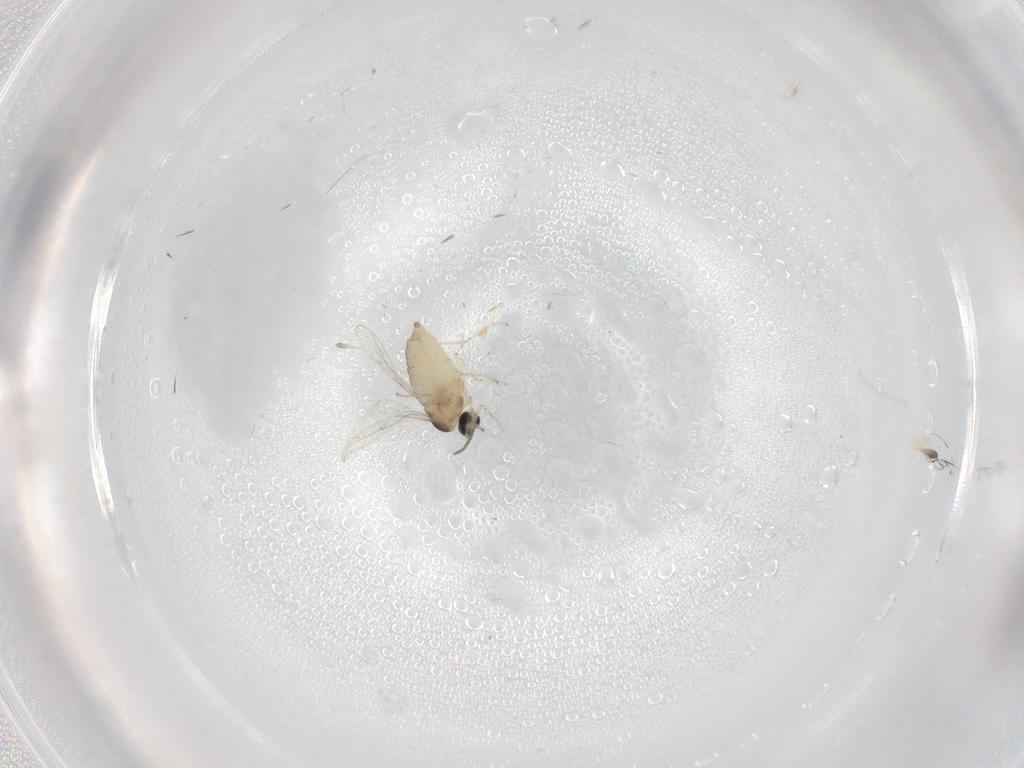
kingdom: Animalia
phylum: Arthropoda
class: Insecta
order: Diptera
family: Cecidomyiidae
